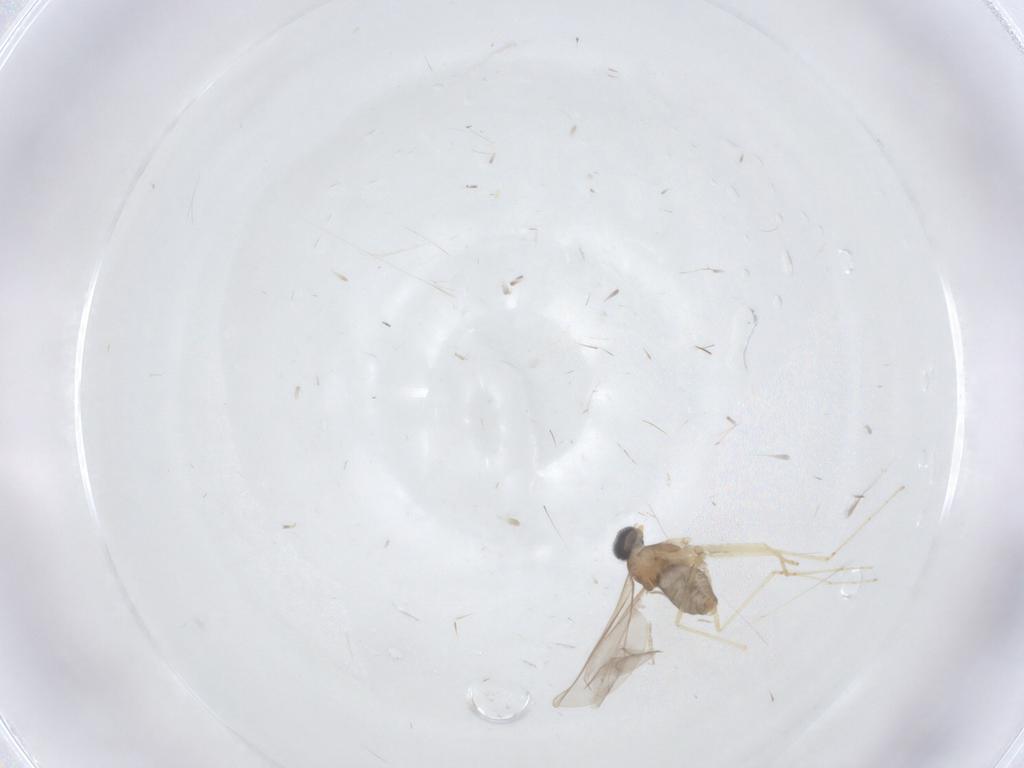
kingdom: Animalia
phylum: Arthropoda
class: Insecta
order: Diptera
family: Cecidomyiidae
